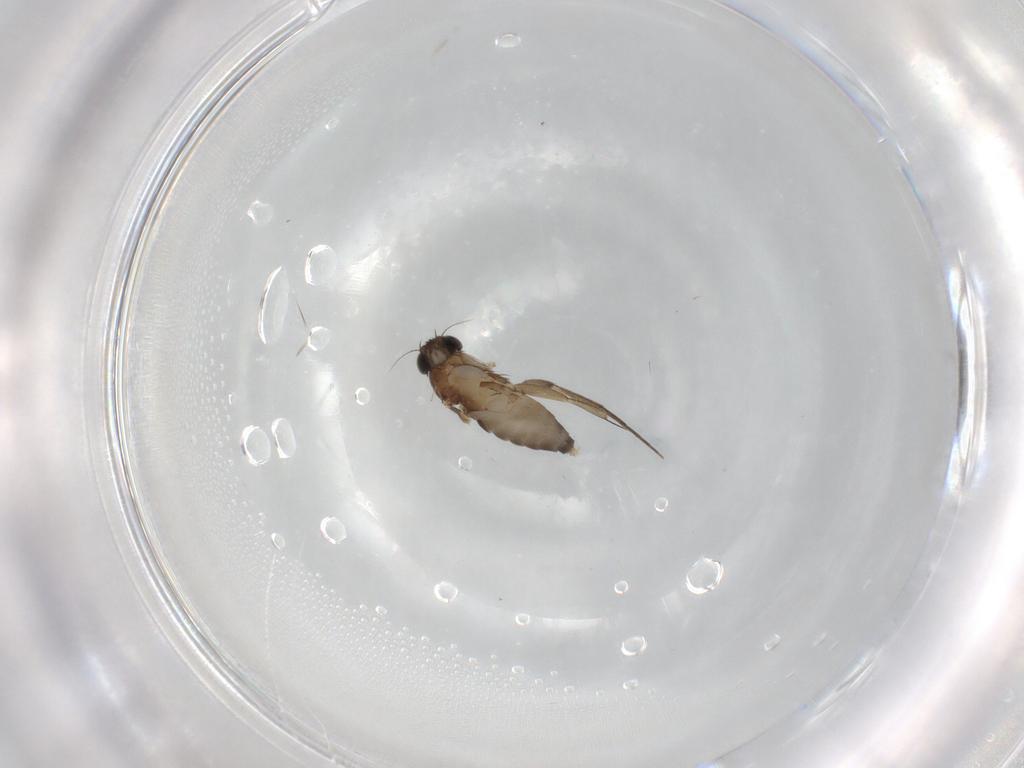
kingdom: Animalia
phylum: Arthropoda
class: Insecta
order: Diptera
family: Phoridae
